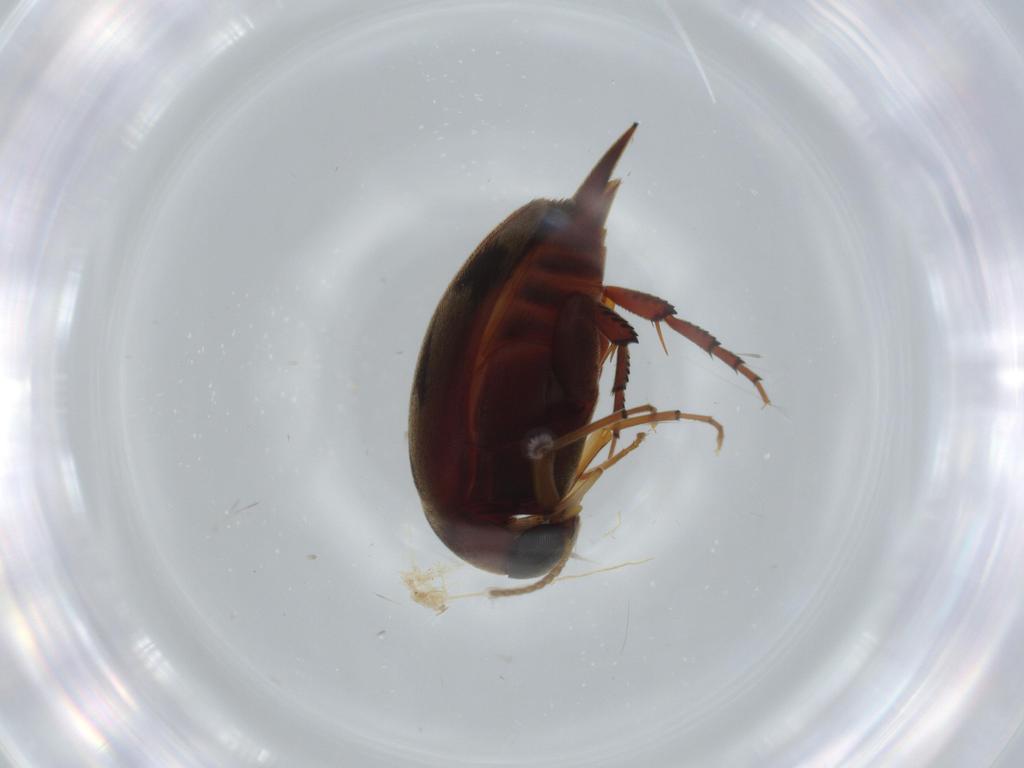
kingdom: Animalia
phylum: Arthropoda
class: Insecta
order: Coleoptera
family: Mordellidae
